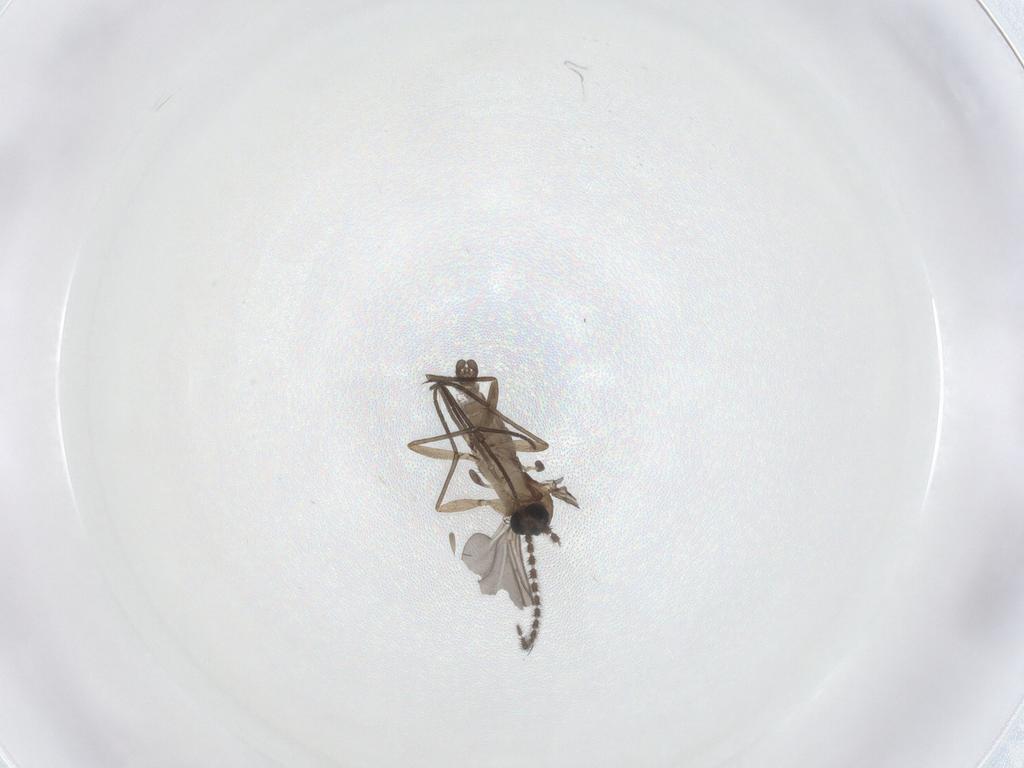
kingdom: Animalia
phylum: Arthropoda
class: Insecta
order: Diptera
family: Sciaridae
